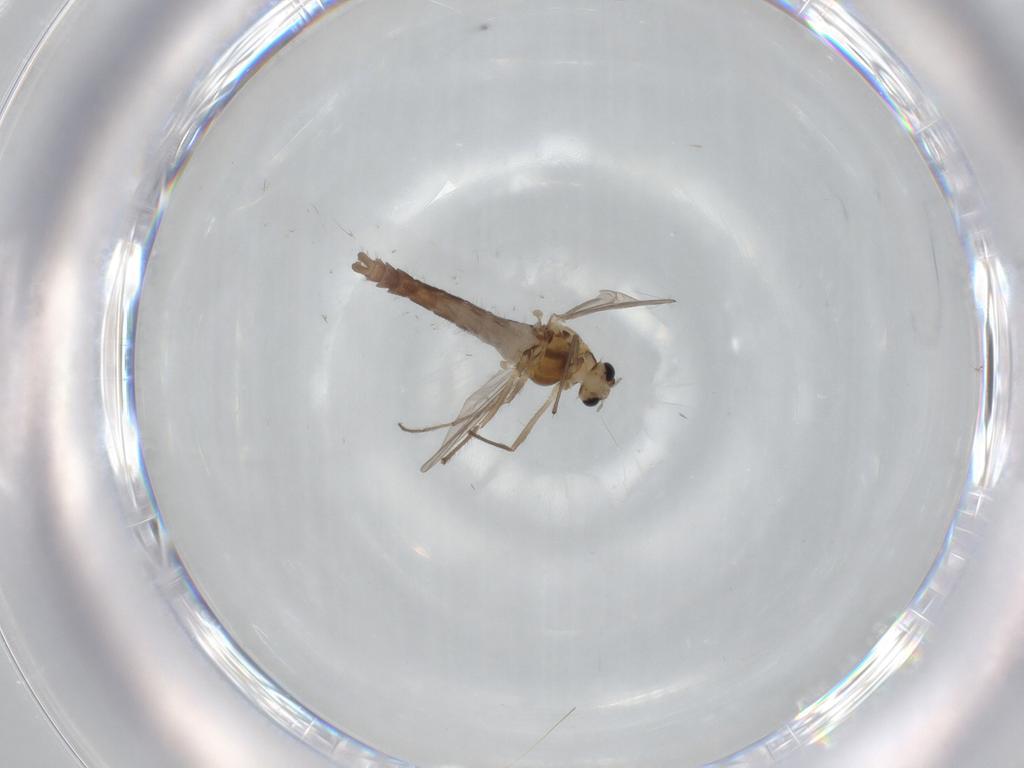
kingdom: Animalia
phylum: Arthropoda
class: Insecta
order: Diptera
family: Chironomidae
